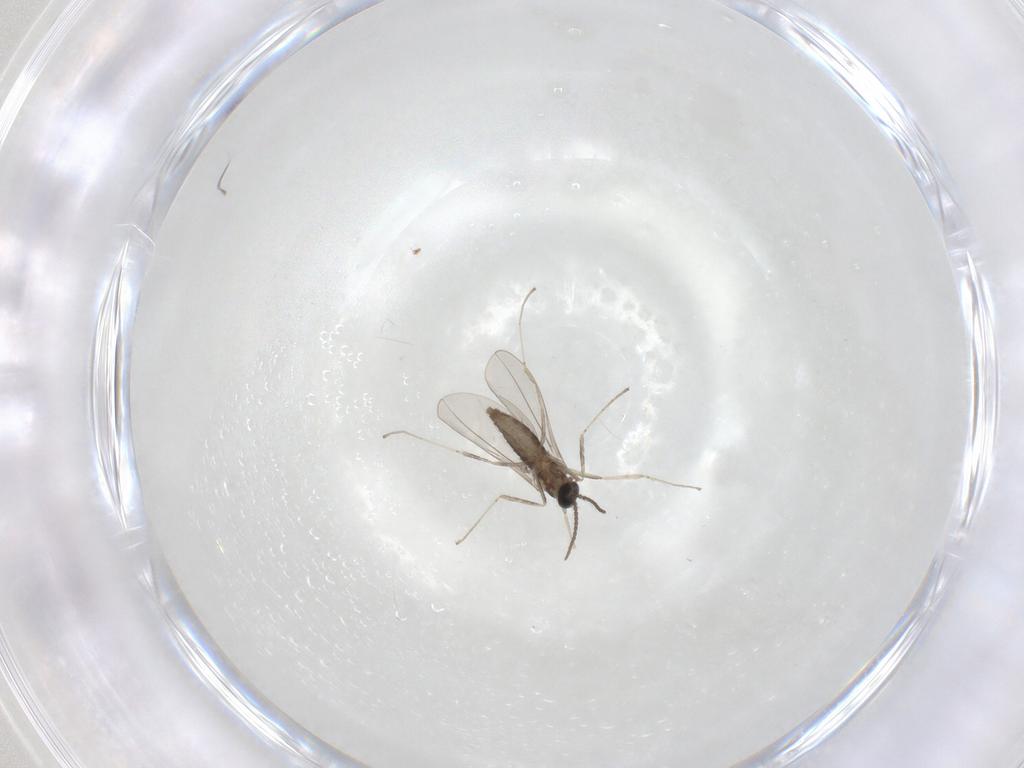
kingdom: Animalia
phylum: Arthropoda
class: Insecta
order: Diptera
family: Cecidomyiidae
